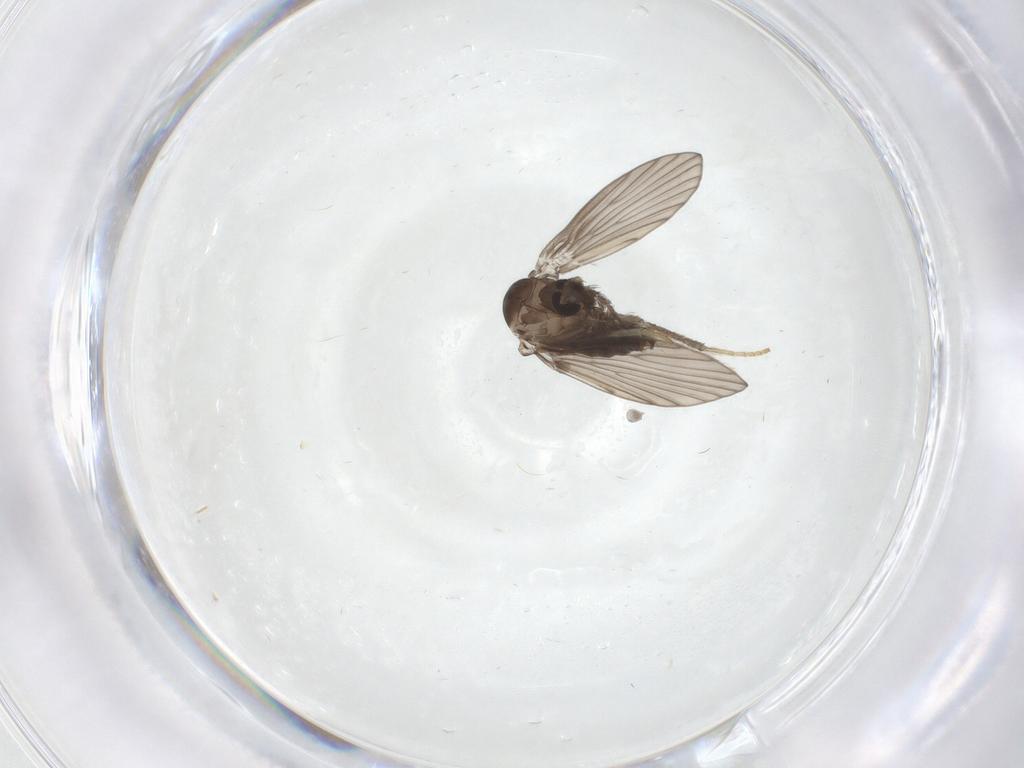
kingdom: Animalia
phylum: Arthropoda
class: Insecta
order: Diptera
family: Psychodidae
